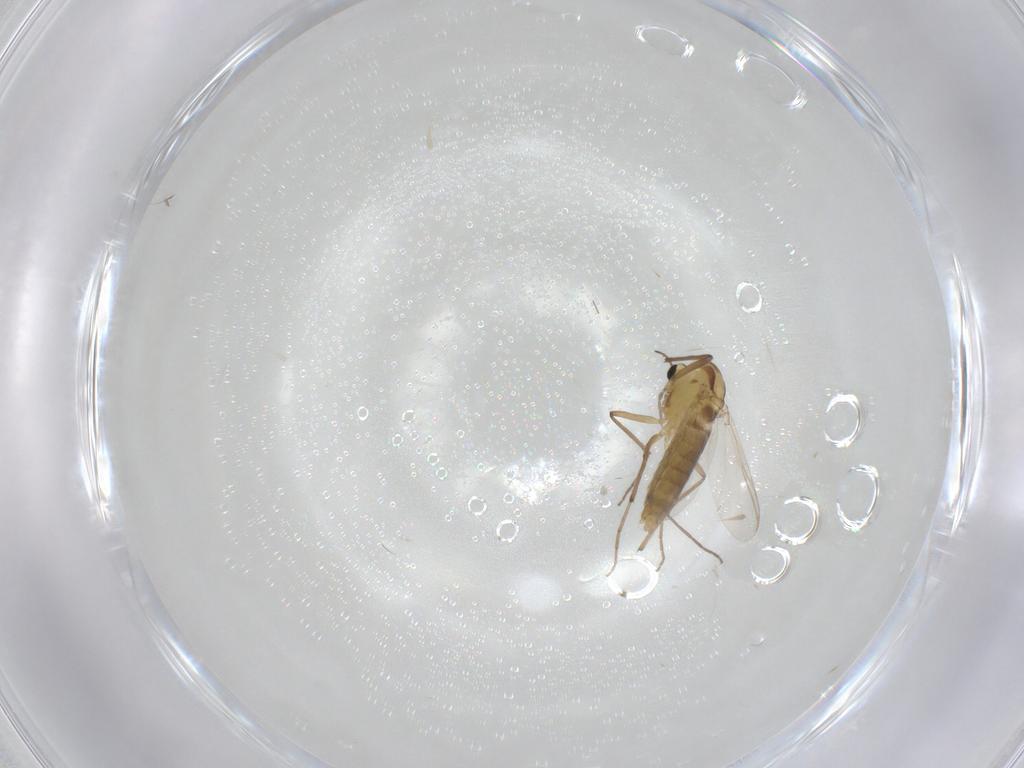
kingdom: Animalia
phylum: Arthropoda
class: Insecta
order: Diptera
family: Chironomidae
